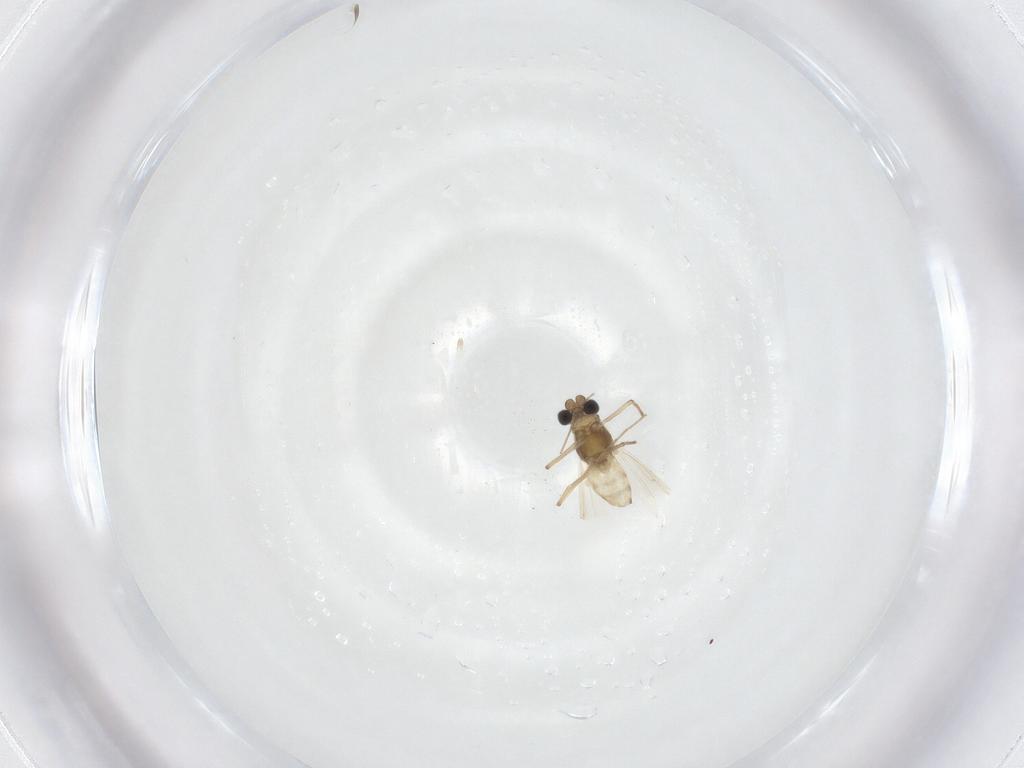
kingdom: Animalia
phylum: Arthropoda
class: Insecta
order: Diptera
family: Chironomidae
